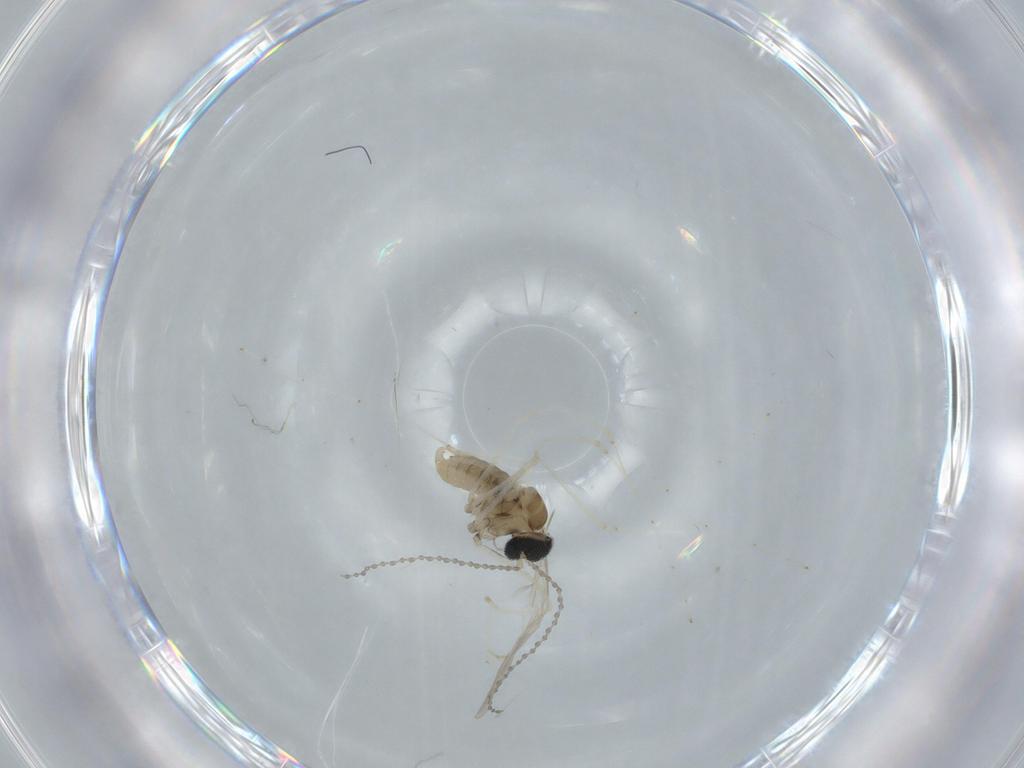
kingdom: Animalia
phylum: Arthropoda
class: Insecta
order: Diptera
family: Cecidomyiidae
